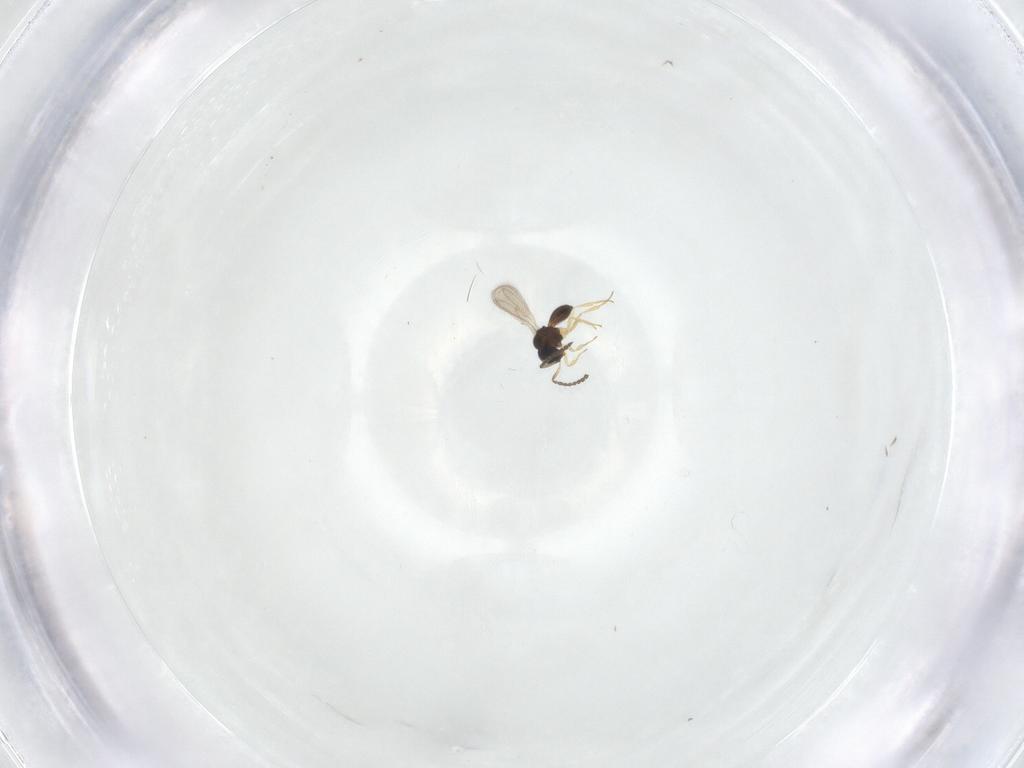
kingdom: Animalia
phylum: Arthropoda
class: Insecta
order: Hymenoptera
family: Scelionidae
